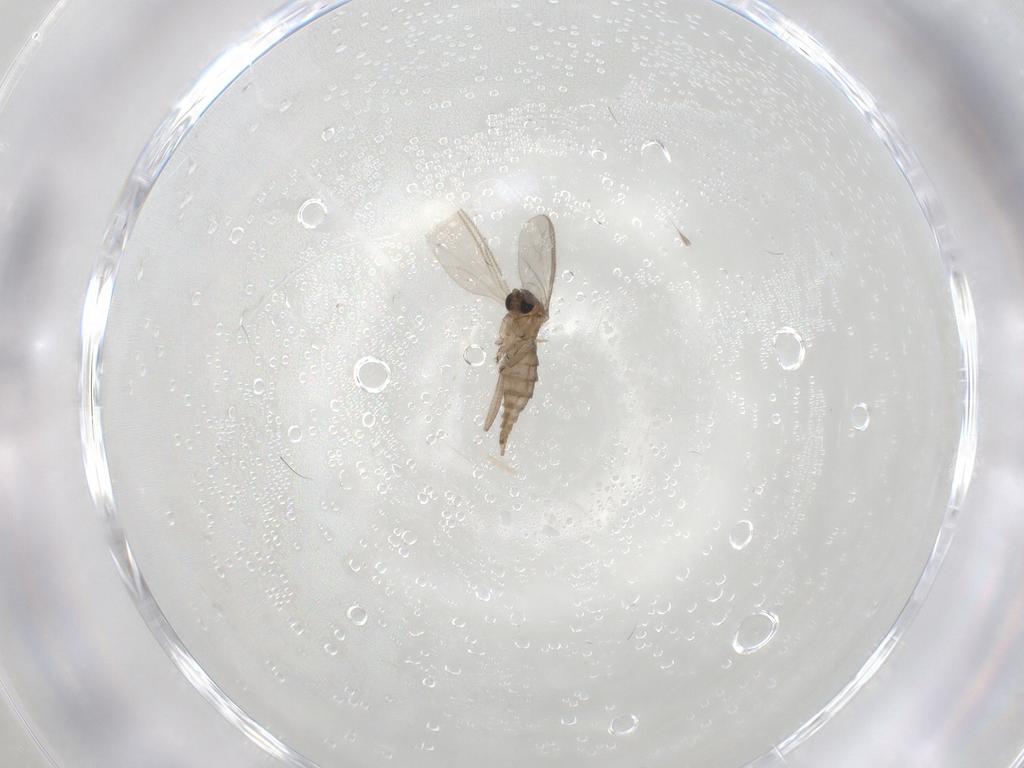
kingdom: Animalia
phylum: Arthropoda
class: Insecta
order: Diptera
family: Sciaridae
